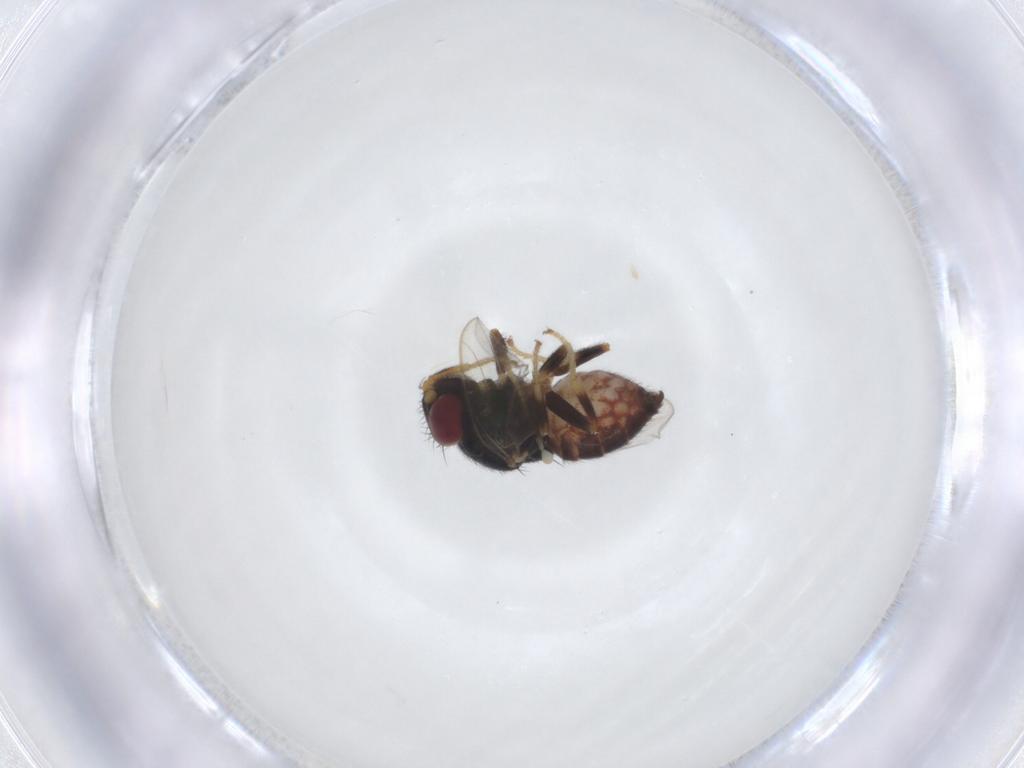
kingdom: Animalia
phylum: Arthropoda
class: Insecta
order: Diptera
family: Chloropidae
